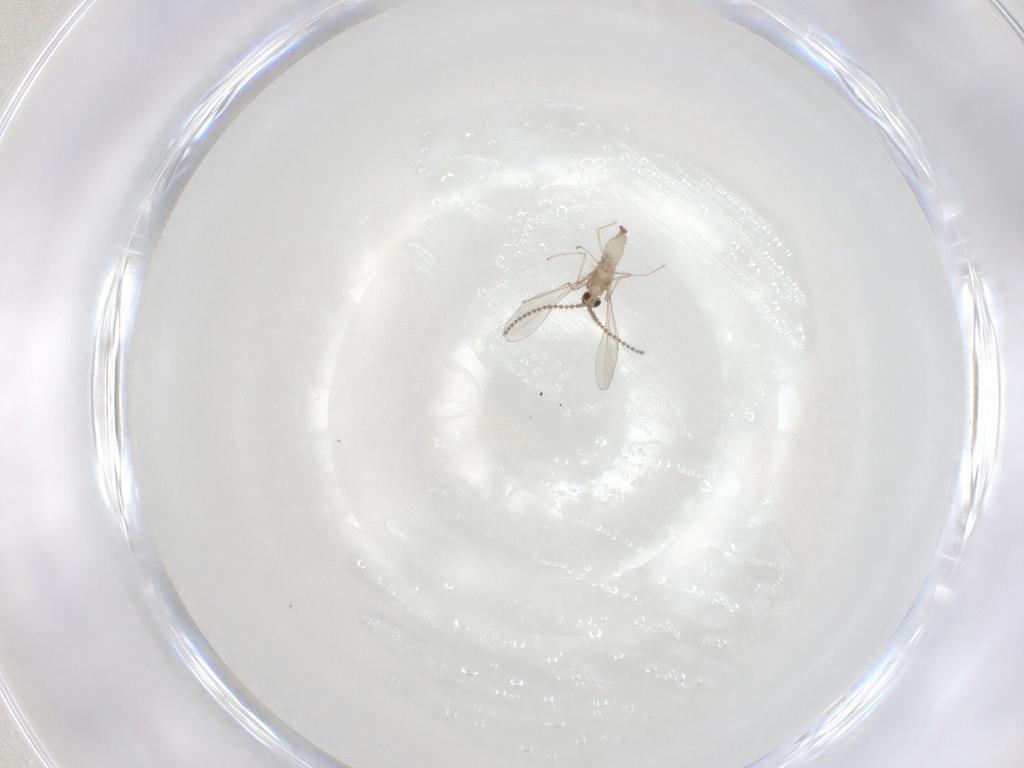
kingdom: Animalia
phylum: Arthropoda
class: Insecta
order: Diptera
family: Cecidomyiidae
